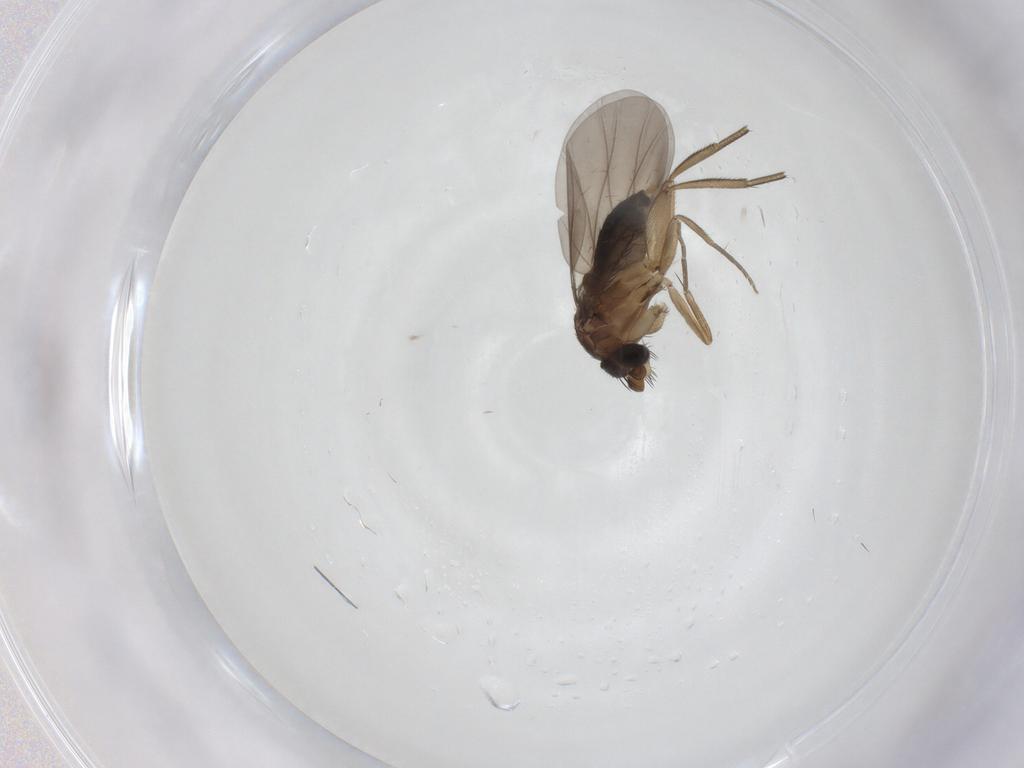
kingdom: Animalia
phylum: Arthropoda
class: Insecta
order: Diptera
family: Phoridae
